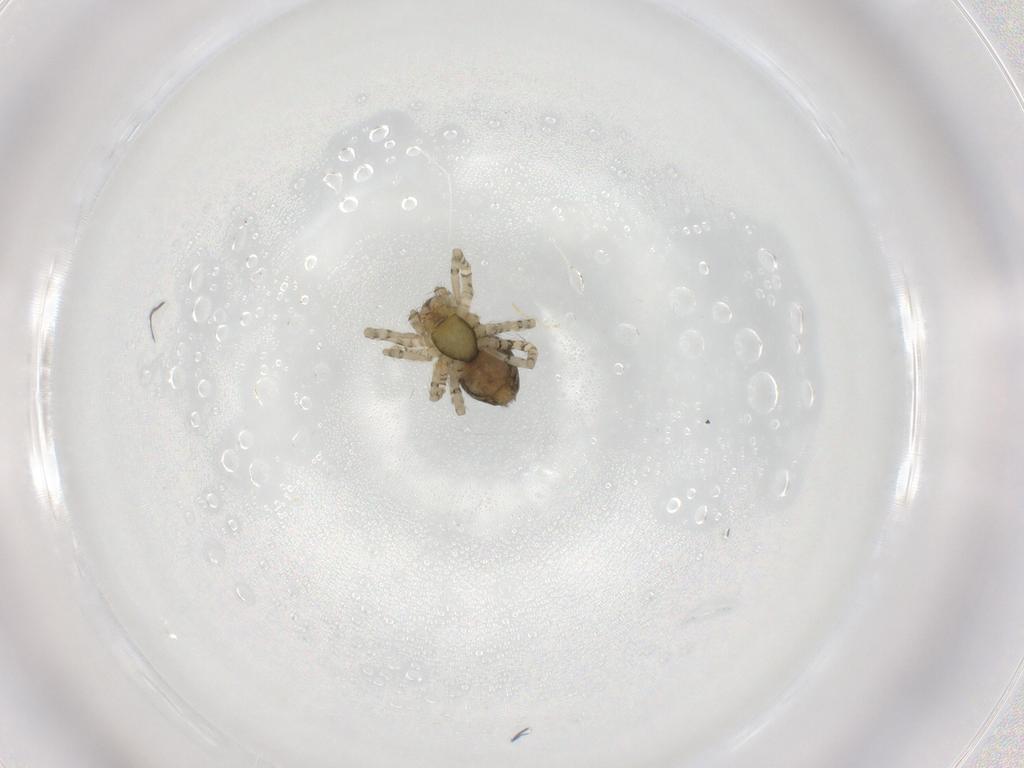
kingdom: Animalia
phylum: Arthropoda
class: Arachnida
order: Araneae
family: Corinnidae
